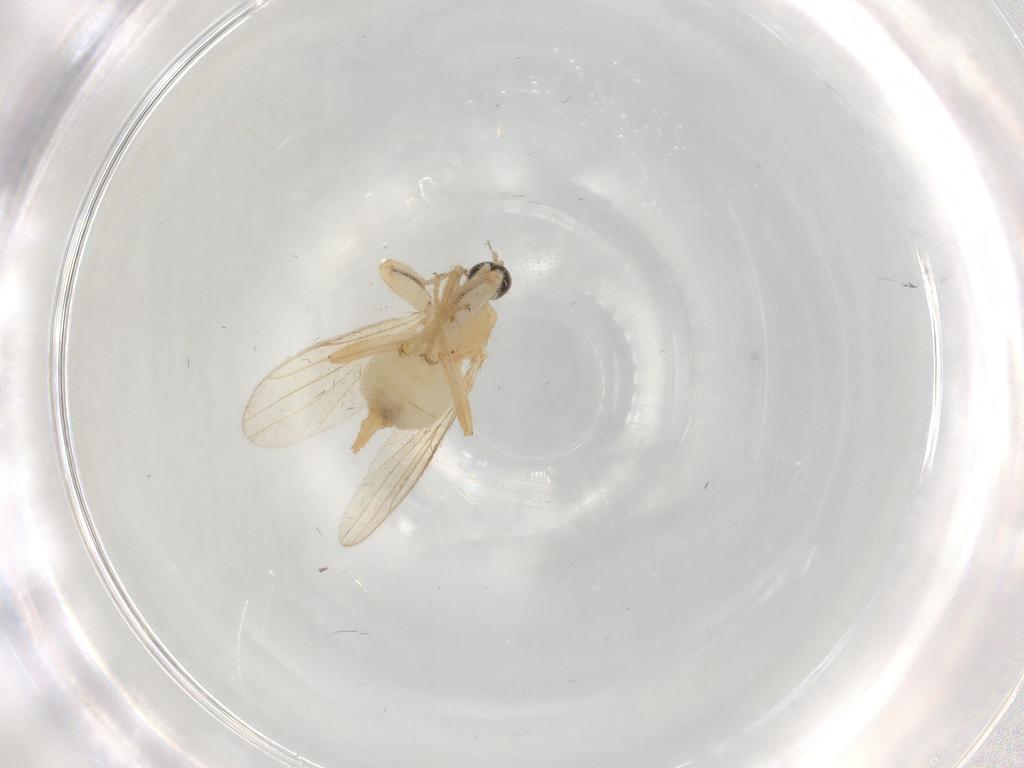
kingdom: Animalia
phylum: Arthropoda
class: Insecta
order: Diptera
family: Hybotidae
